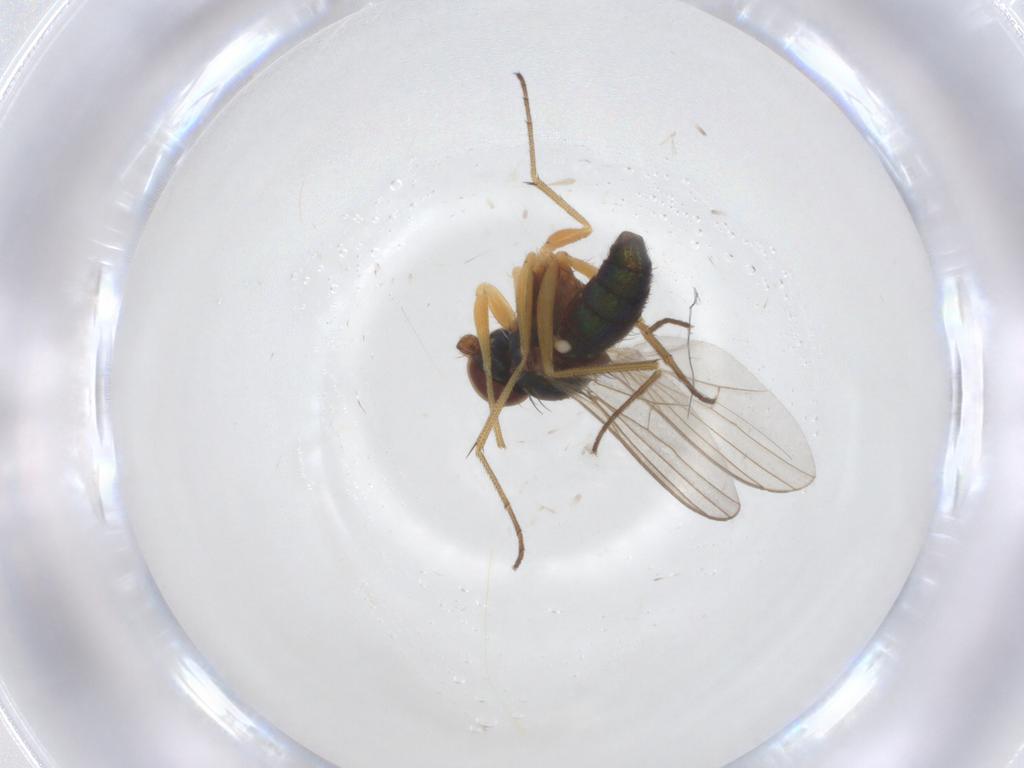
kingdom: Animalia
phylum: Arthropoda
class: Insecta
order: Diptera
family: Dolichopodidae
